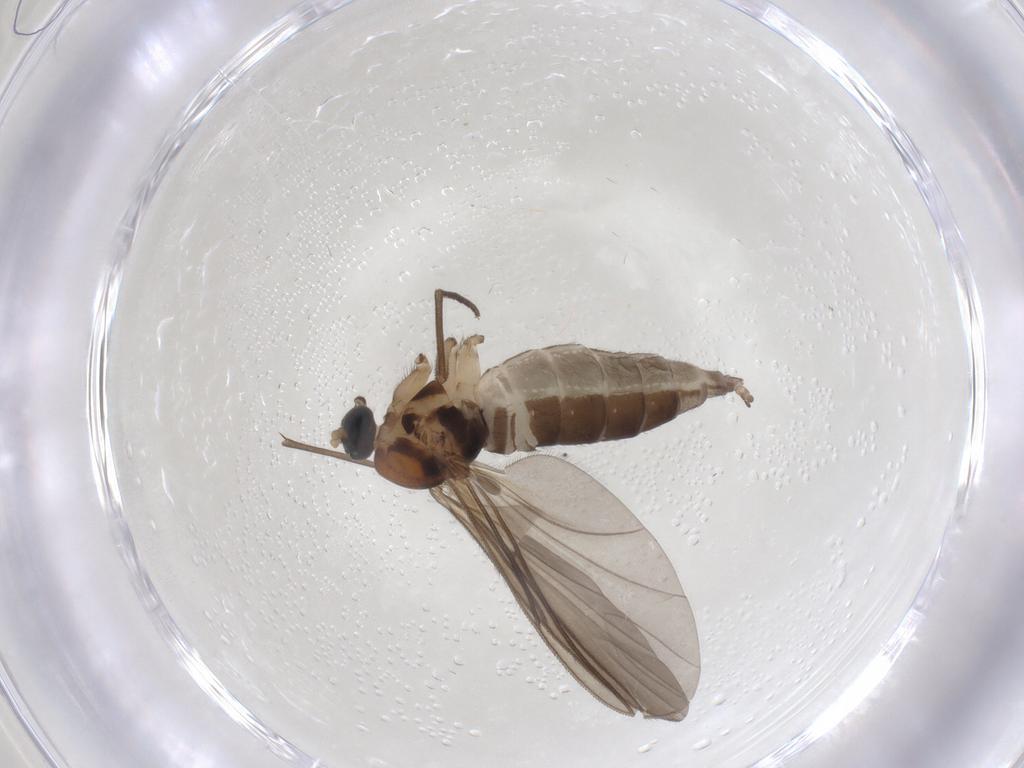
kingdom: Animalia
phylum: Arthropoda
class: Insecta
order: Diptera
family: Sciaridae
